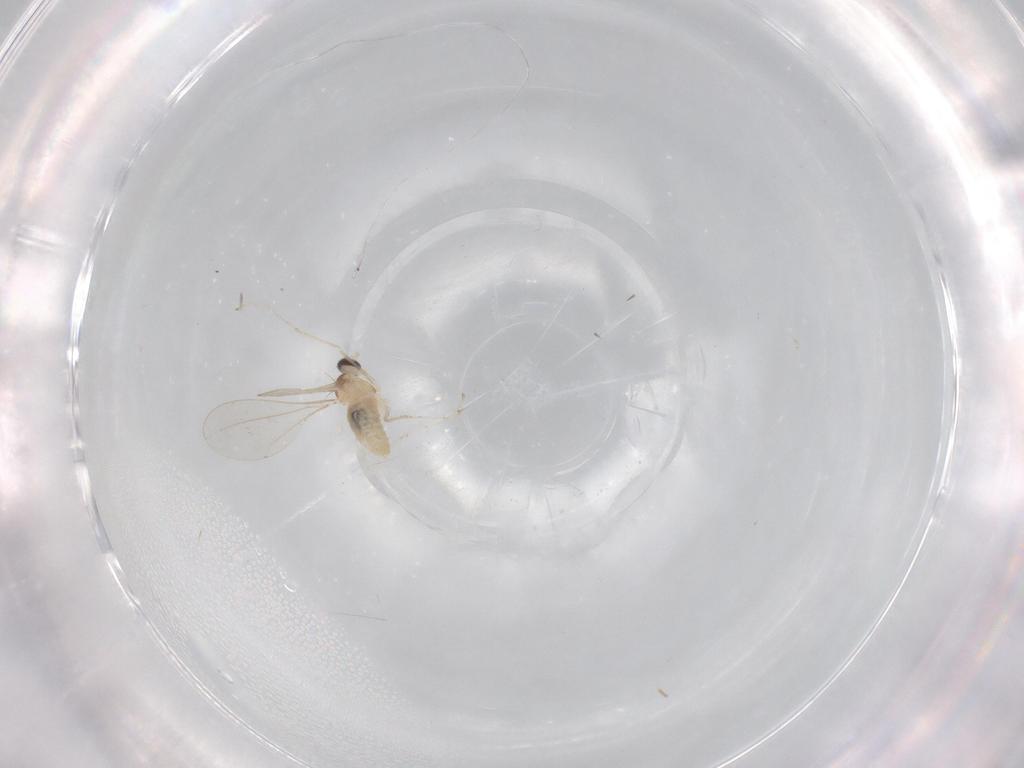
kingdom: Animalia
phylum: Arthropoda
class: Insecta
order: Diptera
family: Cecidomyiidae
